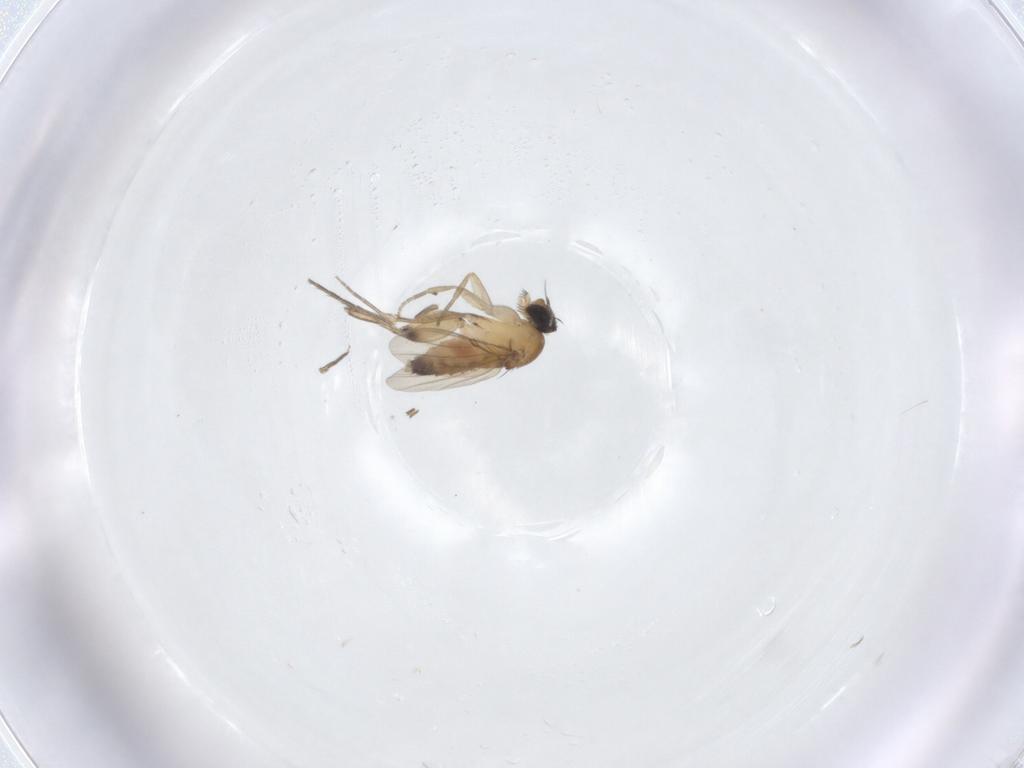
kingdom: Animalia
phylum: Arthropoda
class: Insecta
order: Diptera
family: Phoridae
